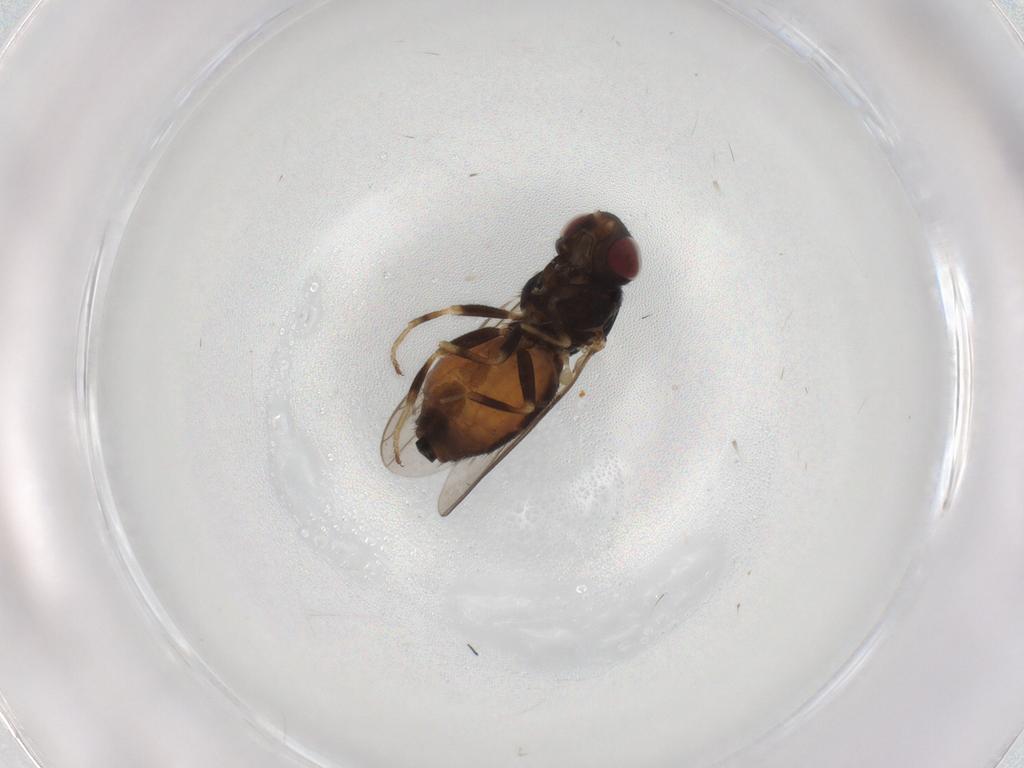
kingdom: Animalia
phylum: Arthropoda
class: Insecta
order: Diptera
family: Chloropidae
